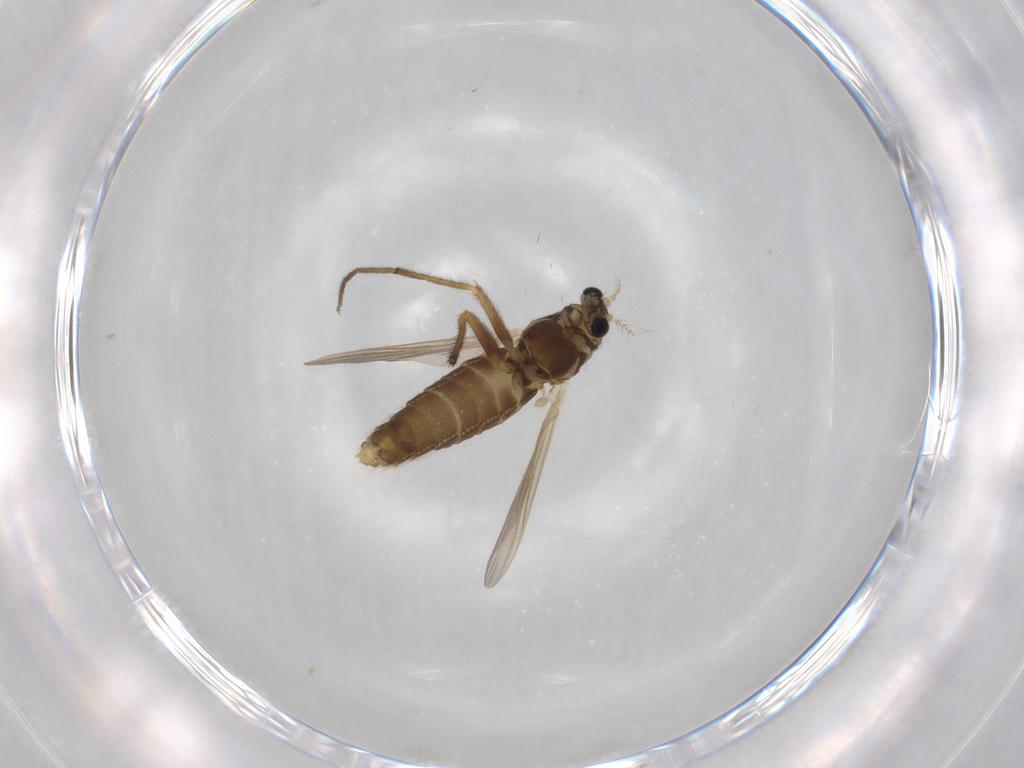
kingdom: Animalia
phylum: Arthropoda
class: Insecta
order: Diptera
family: Chironomidae
